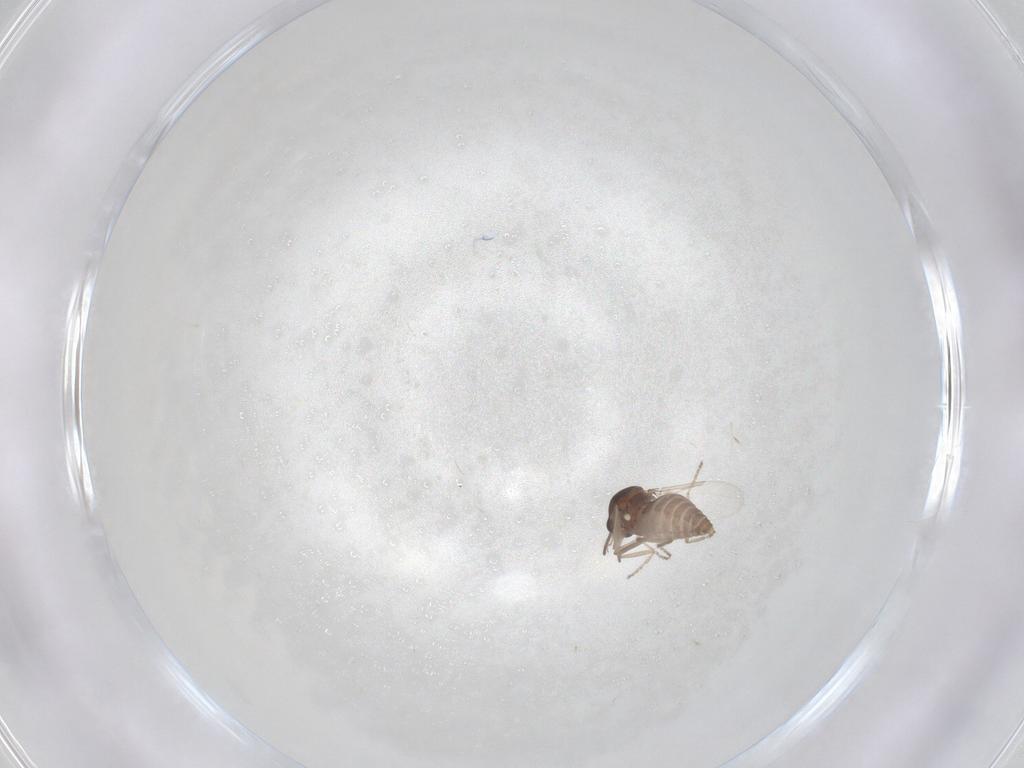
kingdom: Animalia
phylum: Arthropoda
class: Insecta
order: Diptera
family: Ceratopogonidae
